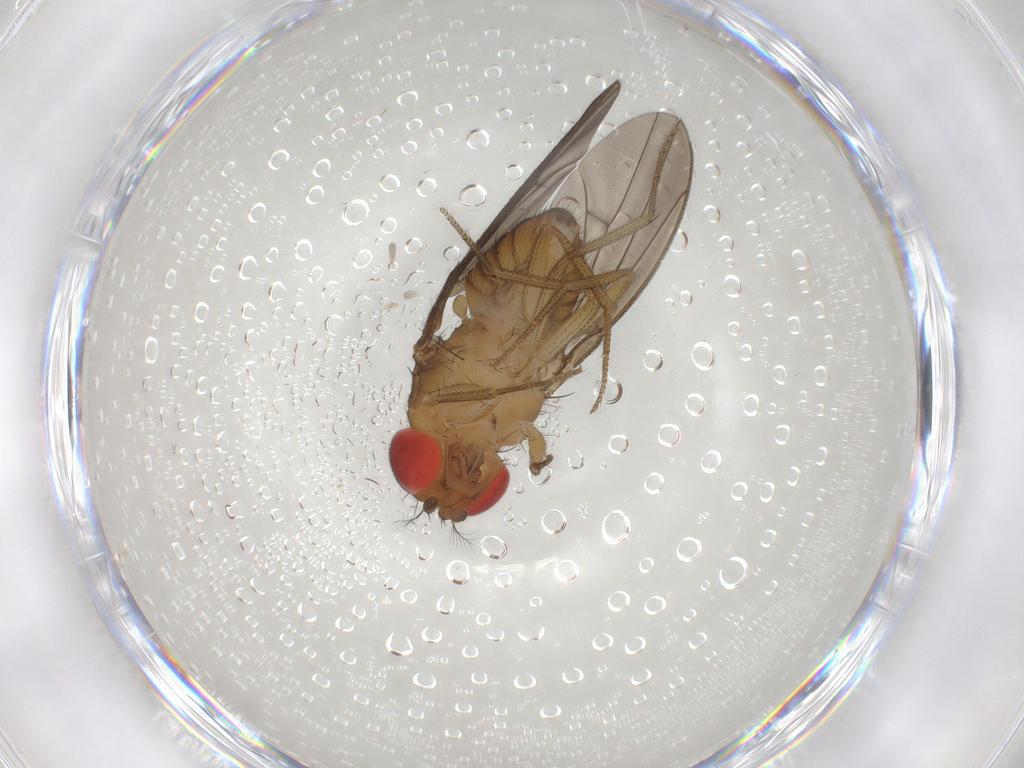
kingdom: Animalia
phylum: Arthropoda
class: Insecta
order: Diptera
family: Drosophilidae
